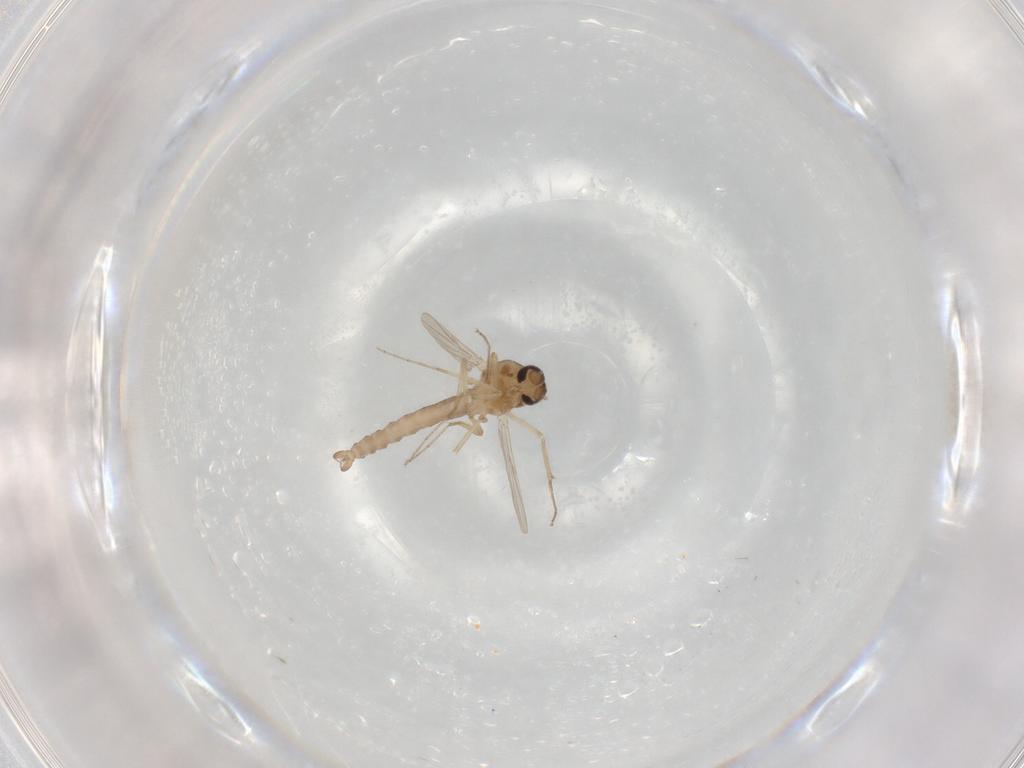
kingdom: Animalia
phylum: Arthropoda
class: Insecta
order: Diptera
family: Ceratopogonidae
